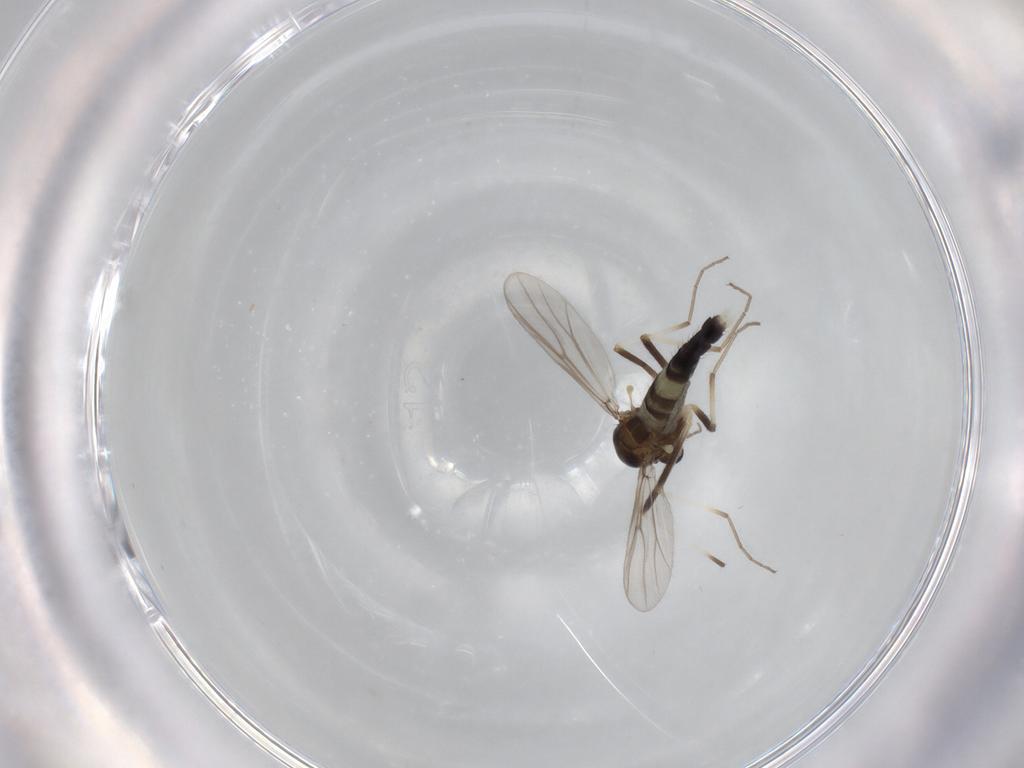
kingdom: Animalia
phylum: Arthropoda
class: Insecta
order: Diptera
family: Chironomidae
